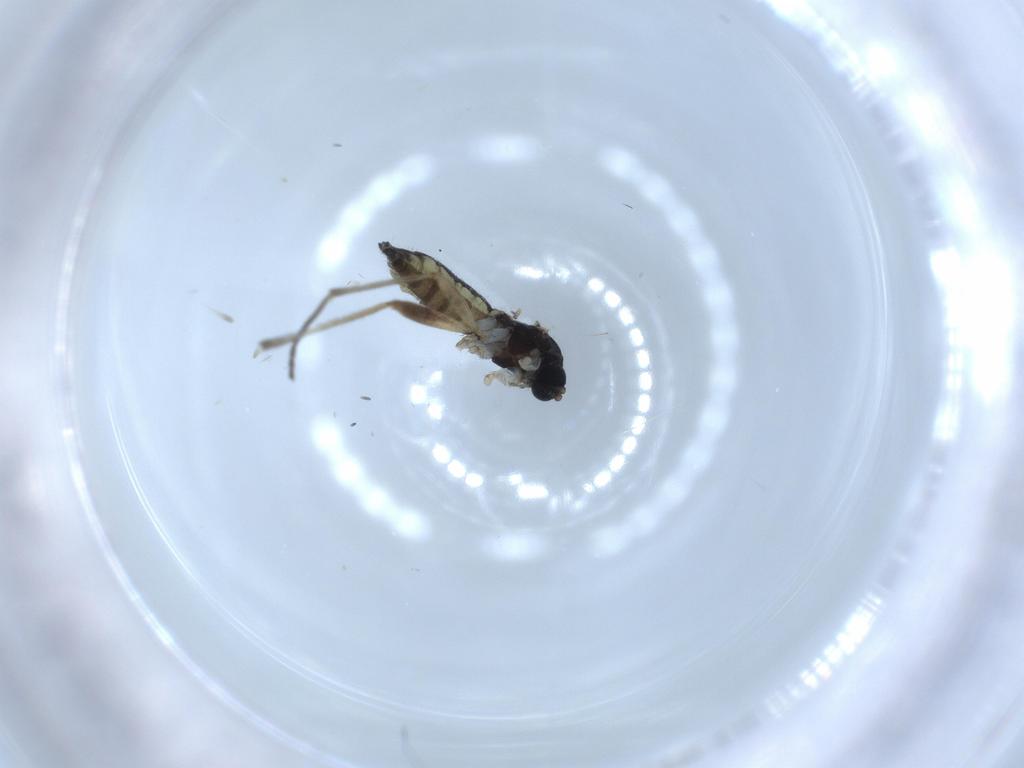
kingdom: Animalia
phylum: Arthropoda
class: Insecta
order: Diptera
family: Sciaridae
